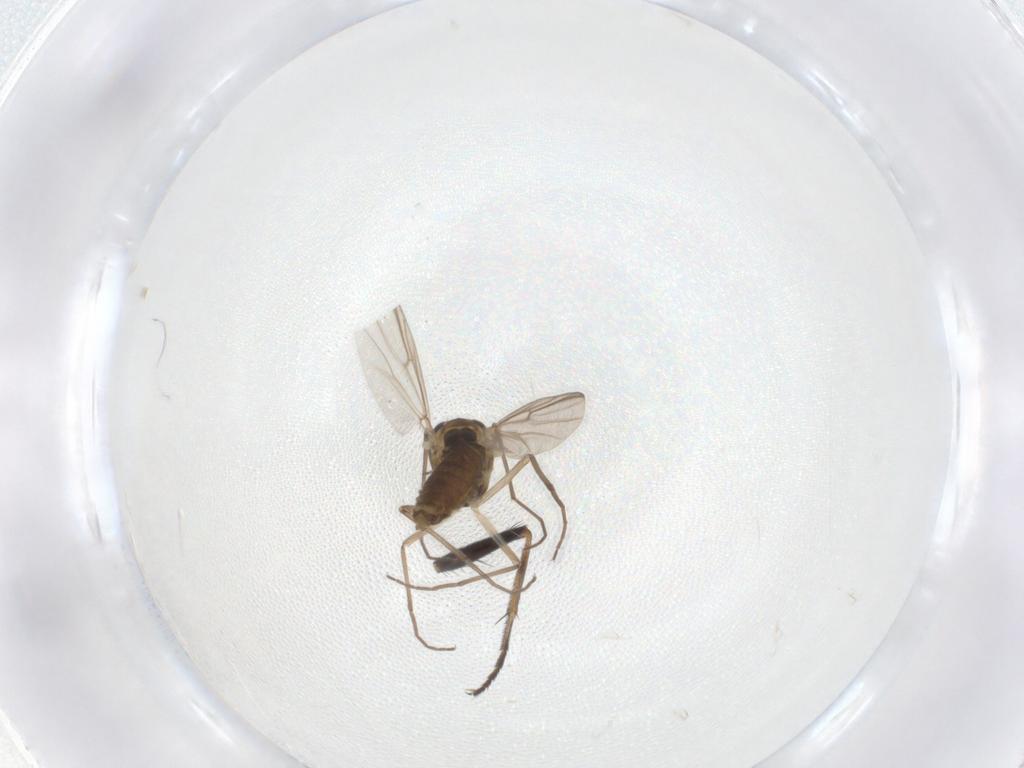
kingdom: Animalia
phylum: Arthropoda
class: Insecta
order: Diptera
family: Chironomidae
